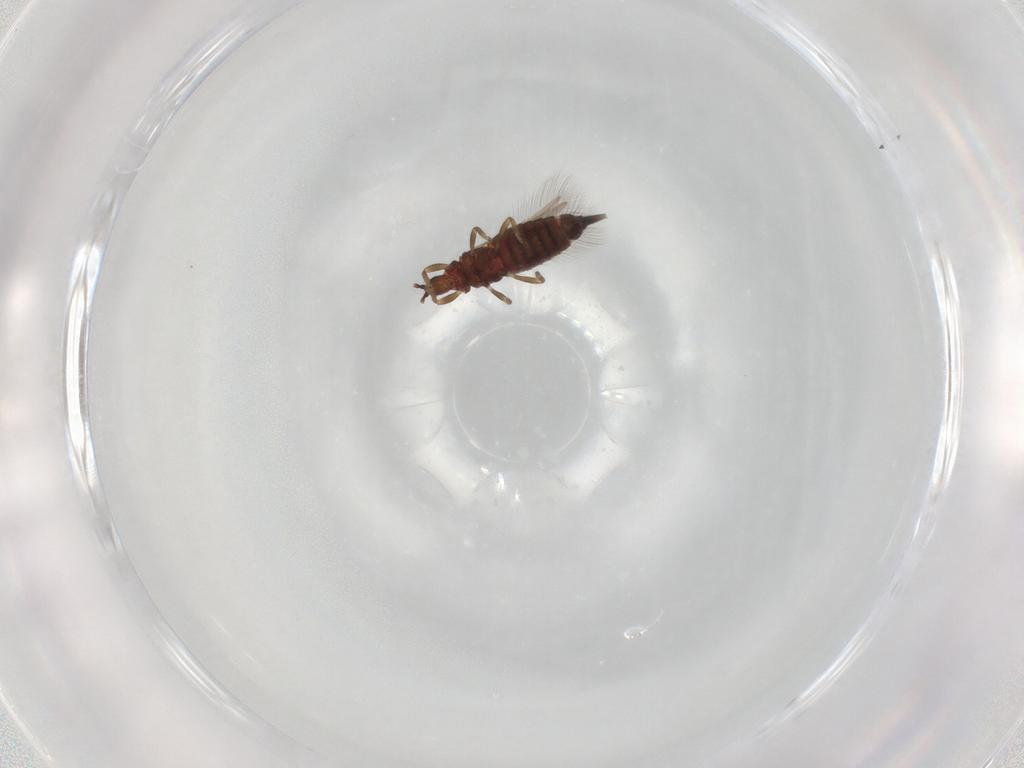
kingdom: Animalia
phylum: Arthropoda
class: Insecta
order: Thysanoptera
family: Phlaeothripidae
